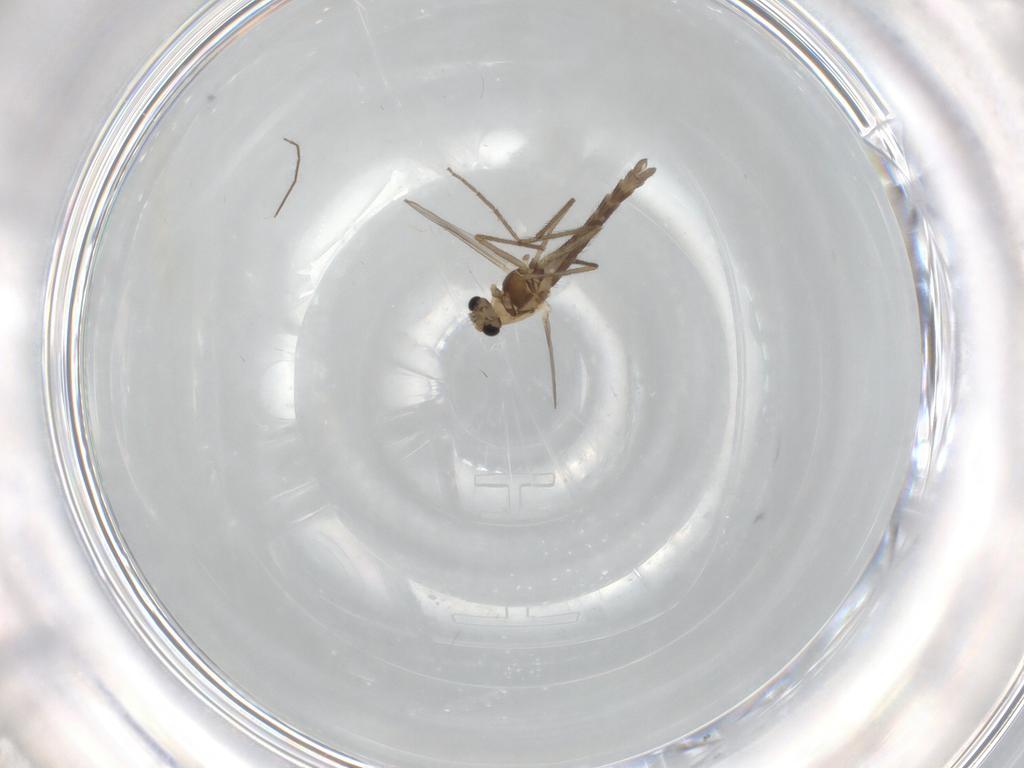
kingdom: Animalia
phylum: Arthropoda
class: Insecta
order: Diptera
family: Chironomidae
